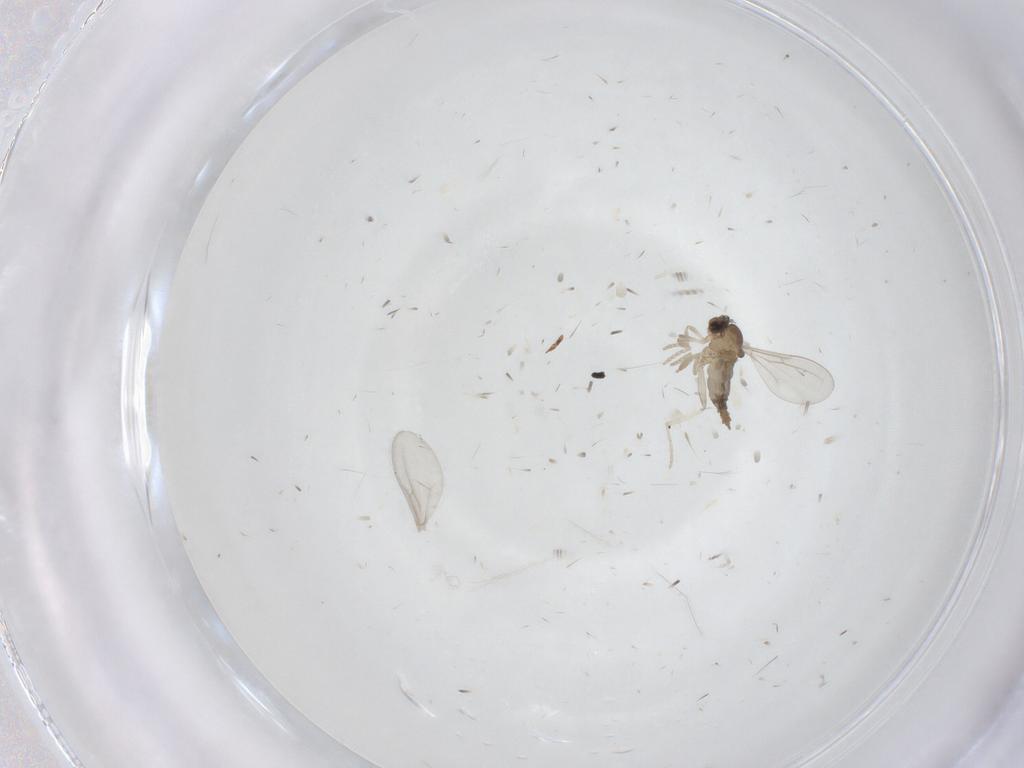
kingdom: Animalia
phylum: Arthropoda
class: Insecta
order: Diptera
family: Cecidomyiidae
